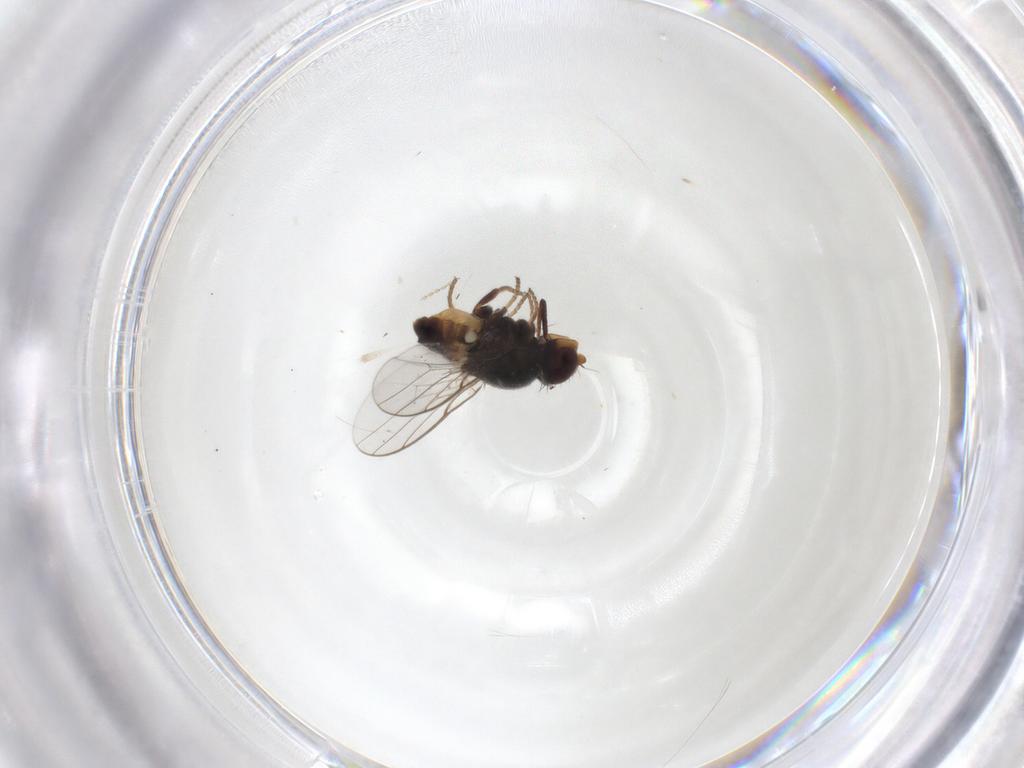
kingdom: Animalia
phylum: Arthropoda
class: Insecta
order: Diptera
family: Chloropidae
